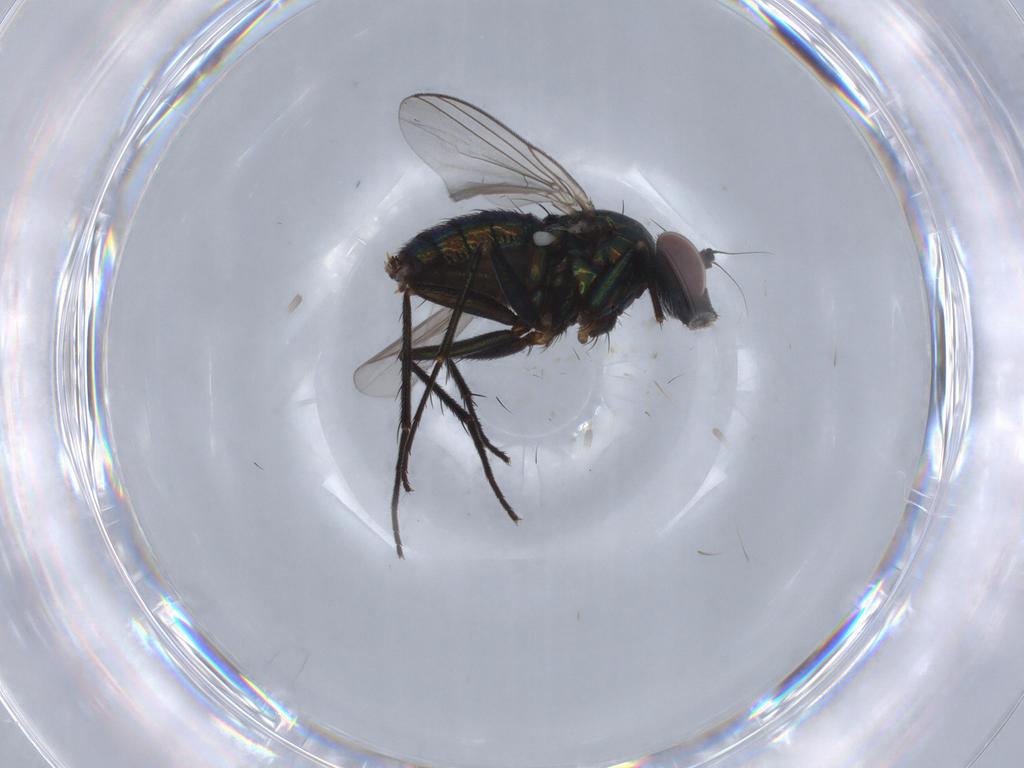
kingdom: Animalia
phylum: Arthropoda
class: Insecta
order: Diptera
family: Dolichopodidae
